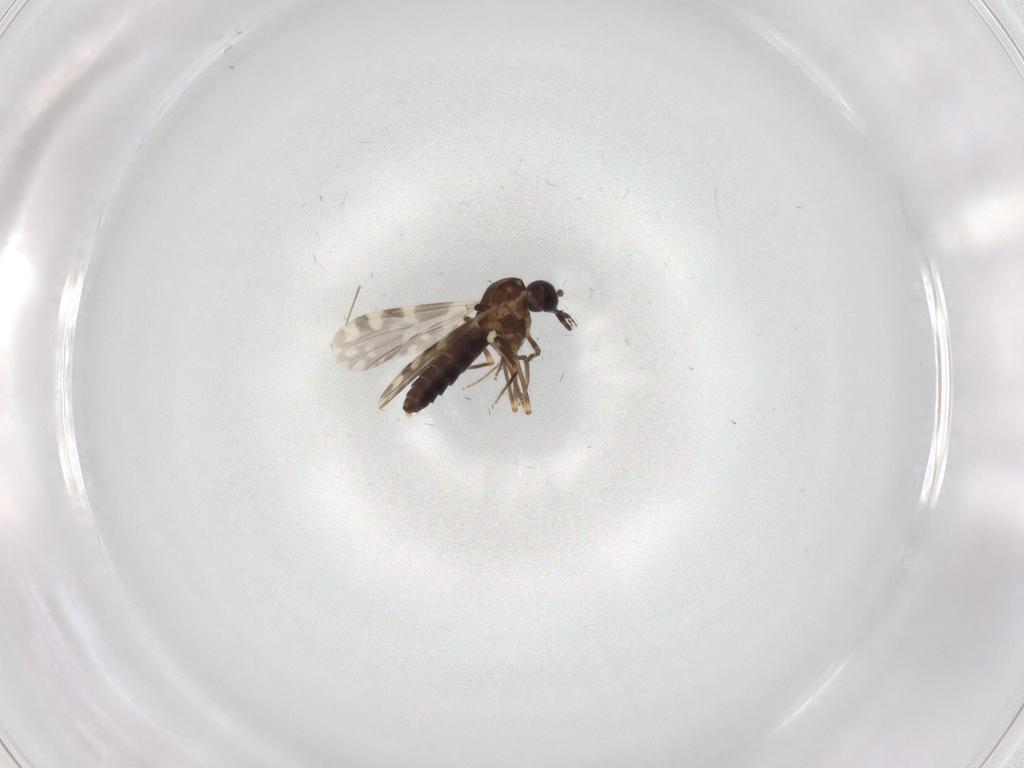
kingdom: Animalia
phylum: Arthropoda
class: Insecta
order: Diptera
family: Ceratopogonidae
